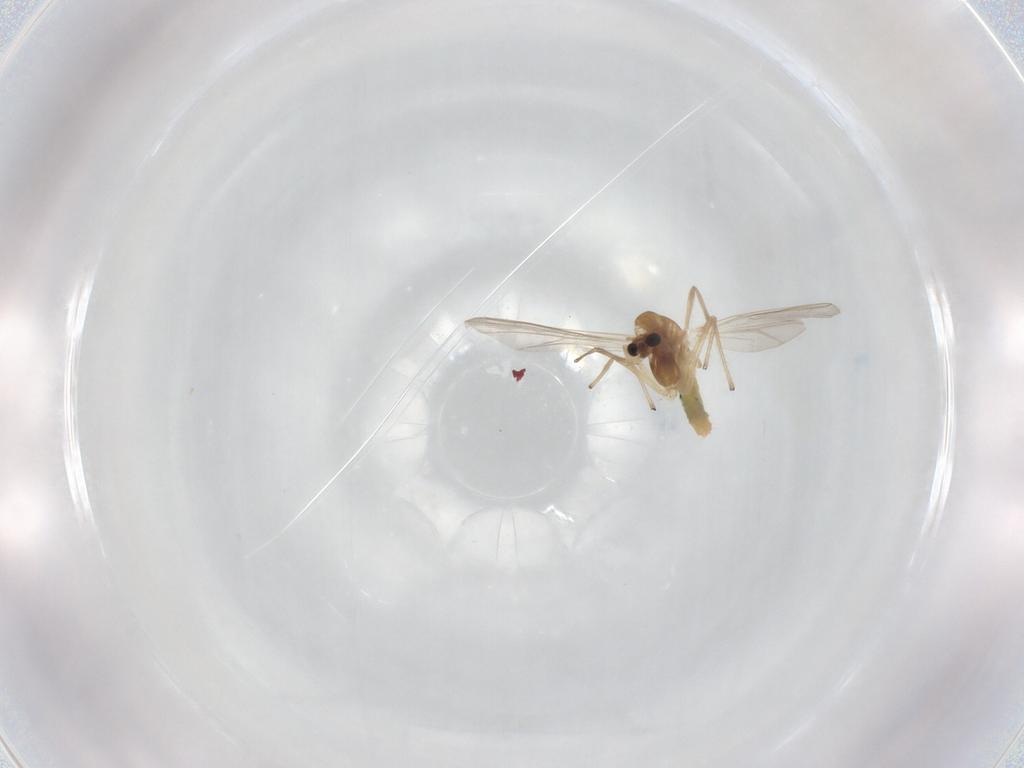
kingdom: Animalia
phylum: Arthropoda
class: Insecta
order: Diptera
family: Chironomidae
